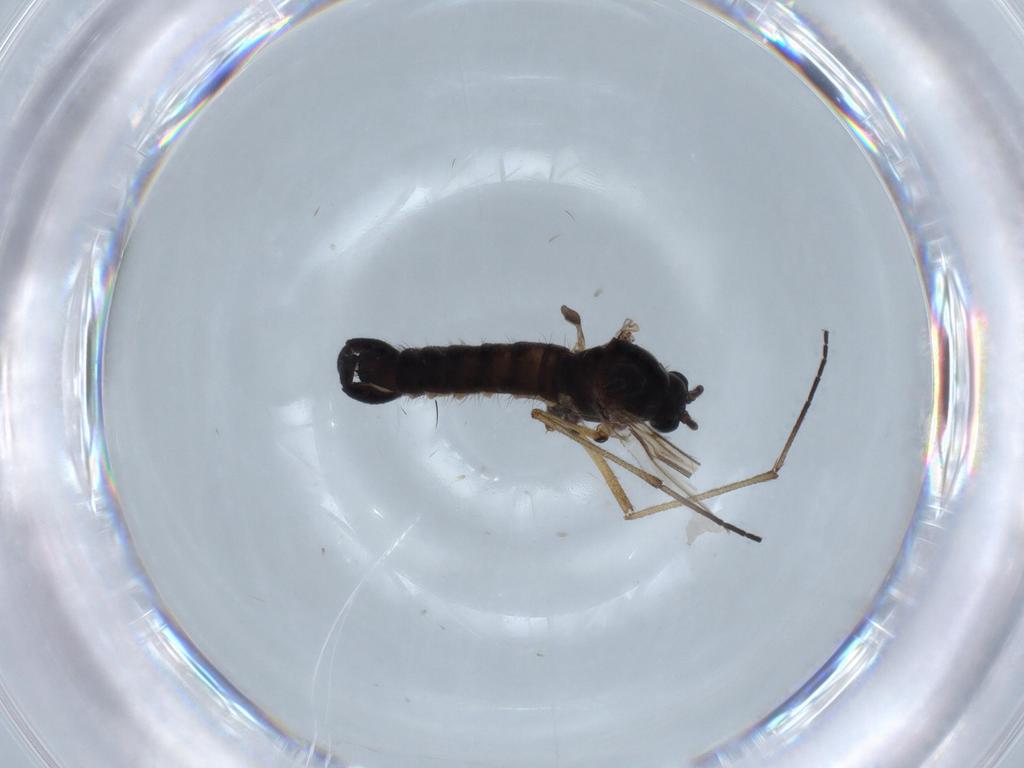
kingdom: Animalia
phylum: Arthropoda
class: Insecta
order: Diptera
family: Sciaridae
